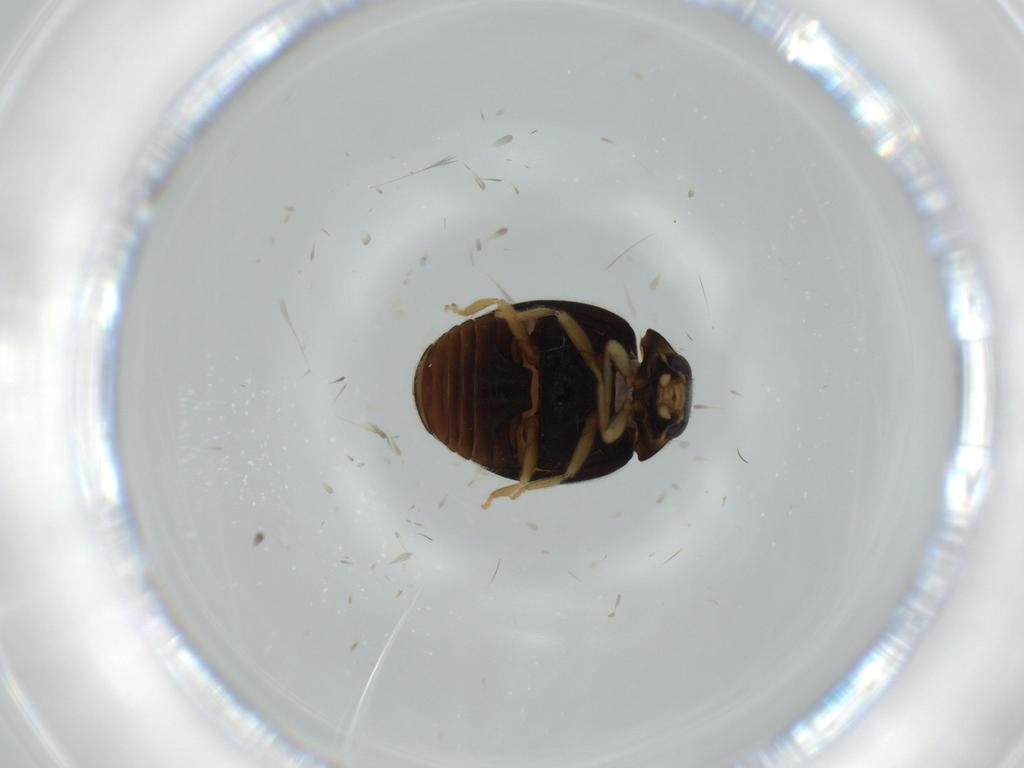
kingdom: Animalia
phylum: Arthropoda
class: Insecta
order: Coleoptera
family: Coccinellidae
